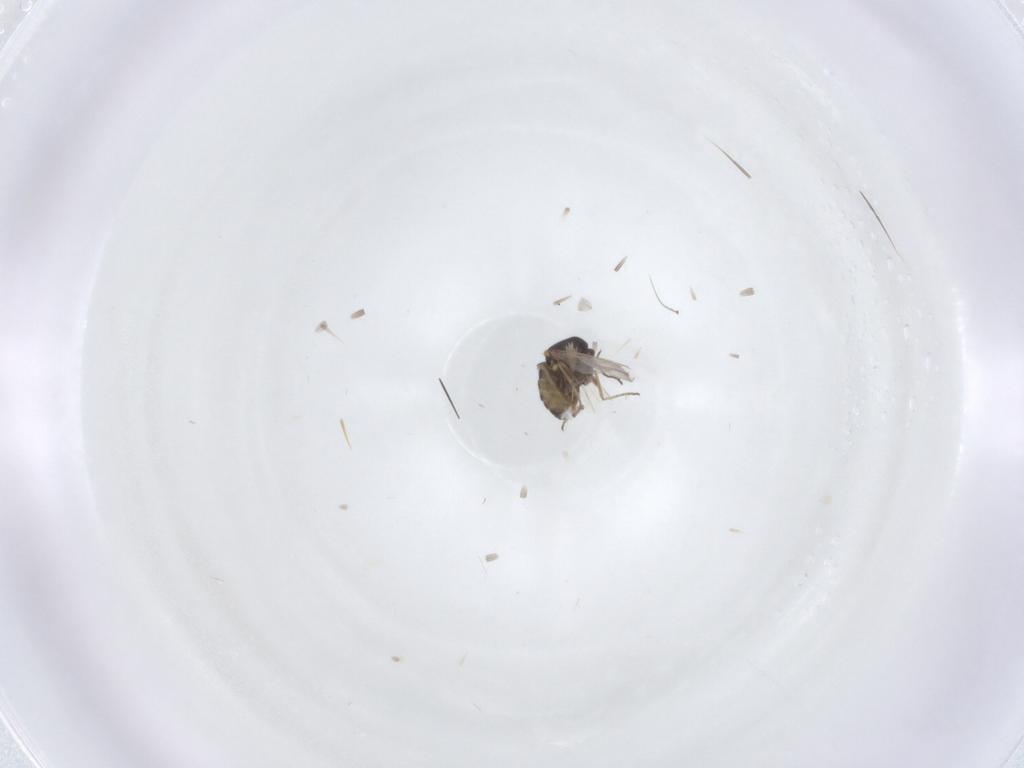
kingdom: Animalia
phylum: Arthropoda
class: Insecta
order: Diptera
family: Ceratopogonidae
